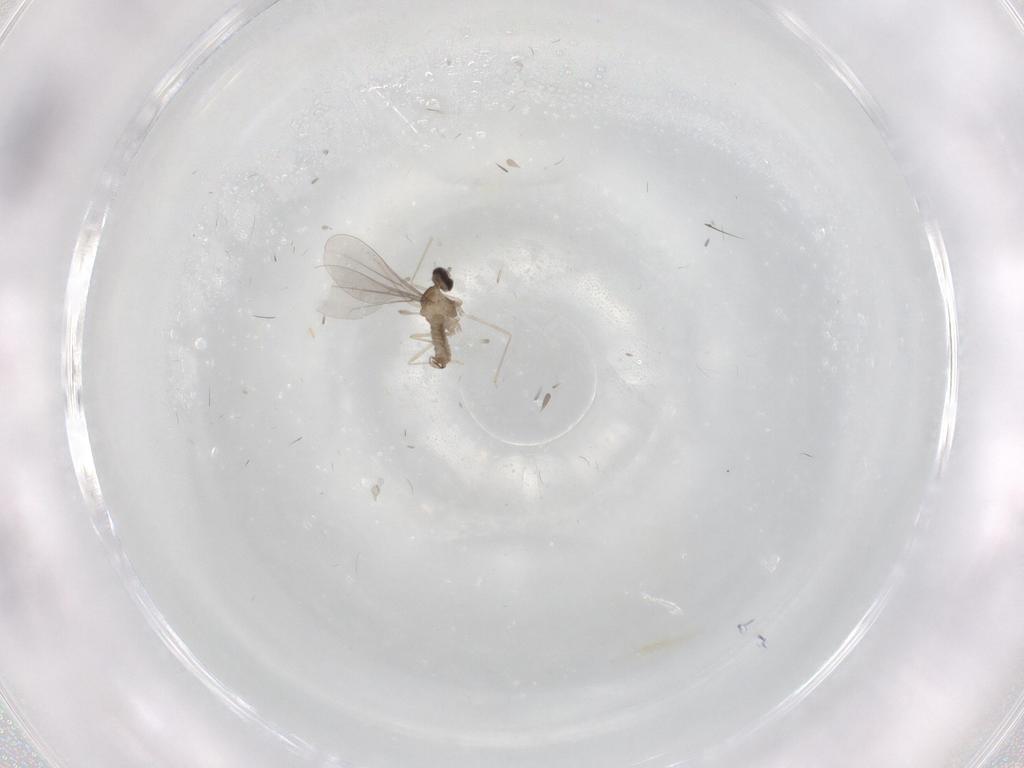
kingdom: Animalia
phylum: Arthropoda
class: Insecta
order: Diptera
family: Cecidomyiidae
